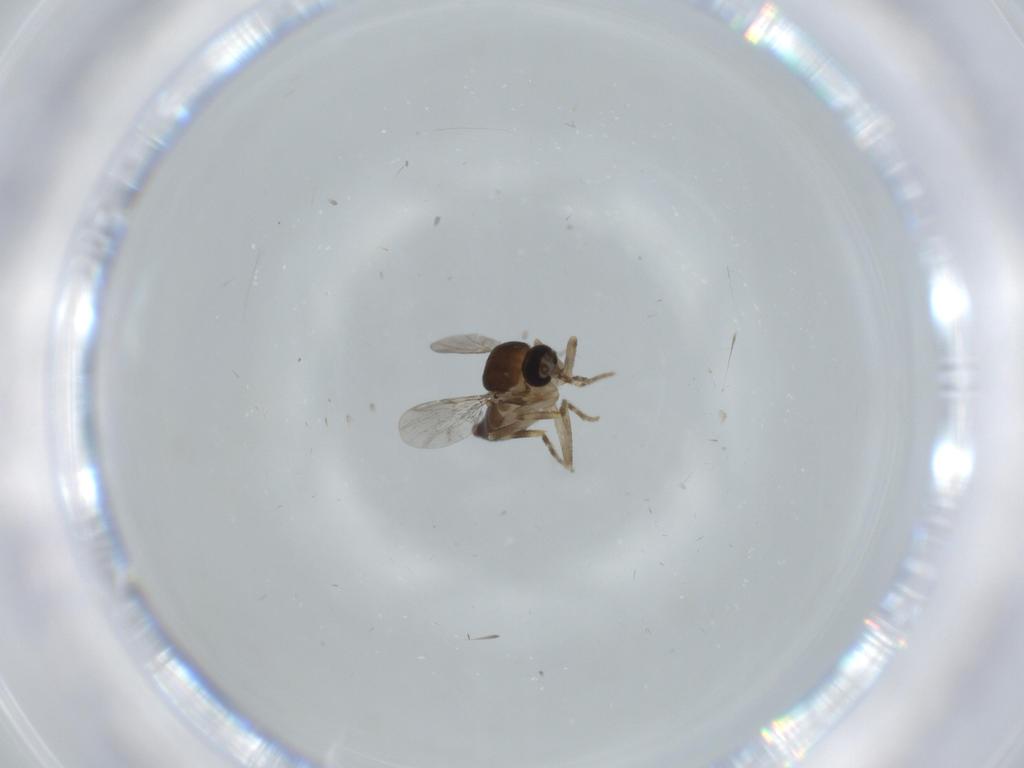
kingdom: Animalia
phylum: Arthropoda
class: Insecta
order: Diptera
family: Ceratopogonidae
